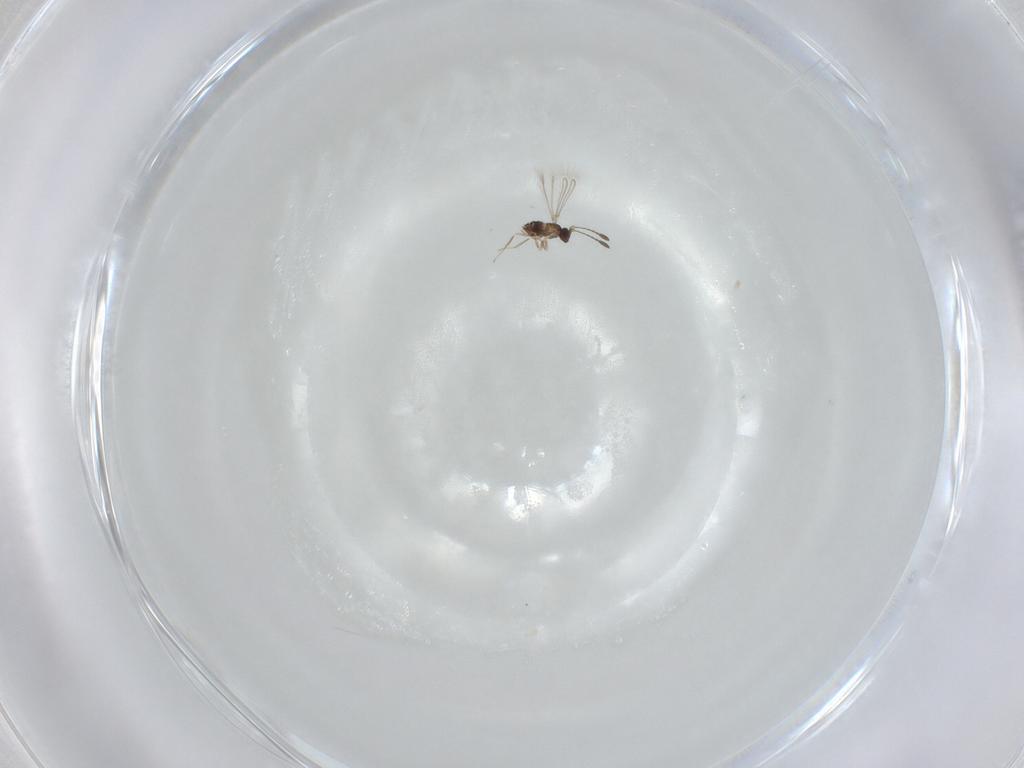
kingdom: Animalia
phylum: Arthropoda
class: Insecta
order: Hymenoptera
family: Mymaridae
